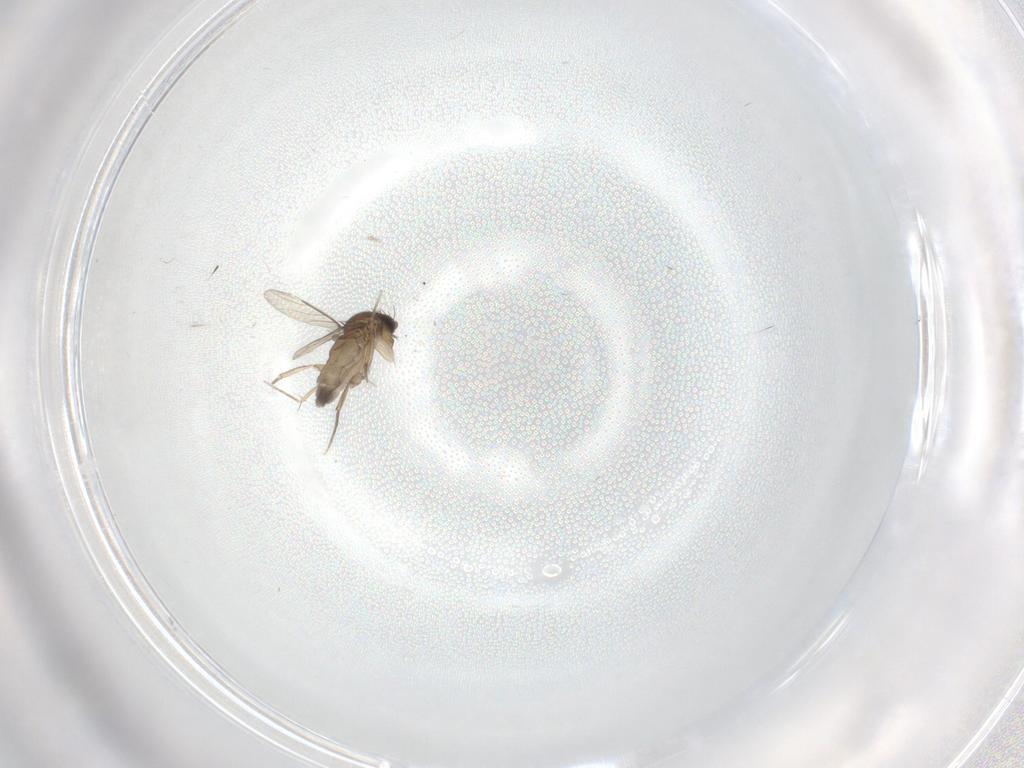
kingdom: Animalia
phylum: Arthropoda
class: Insecta
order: Diptera
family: Phoridae
